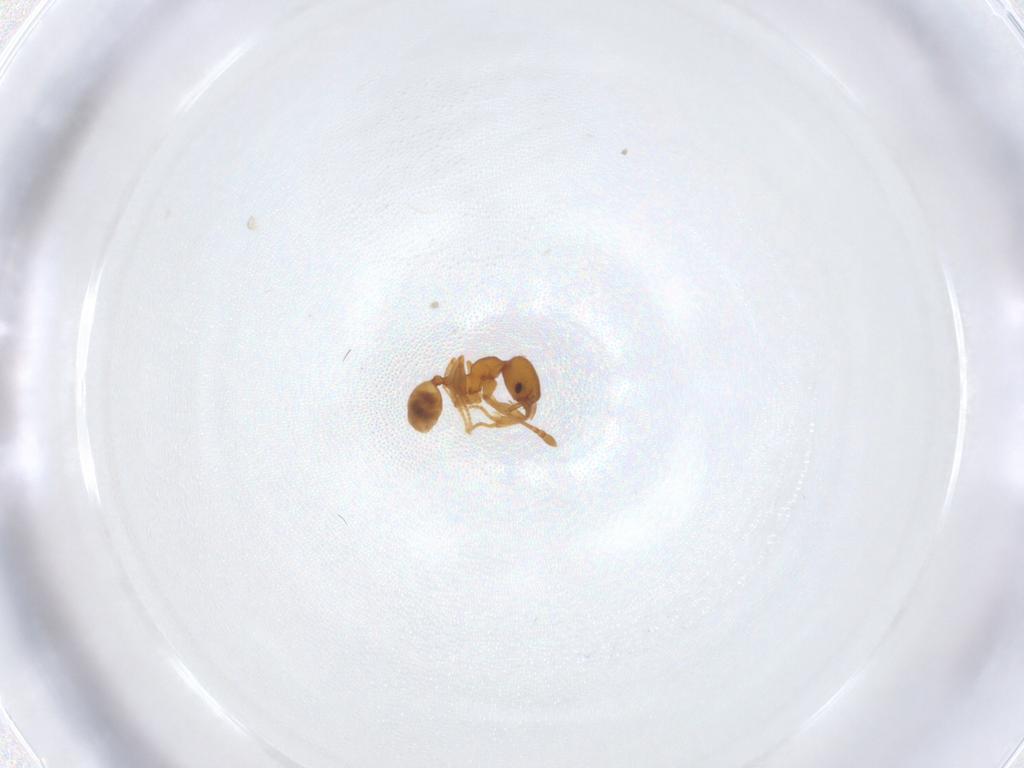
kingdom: Animalia
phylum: Arthropoda
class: Insecta
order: Hymenoptera
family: Formicidae
